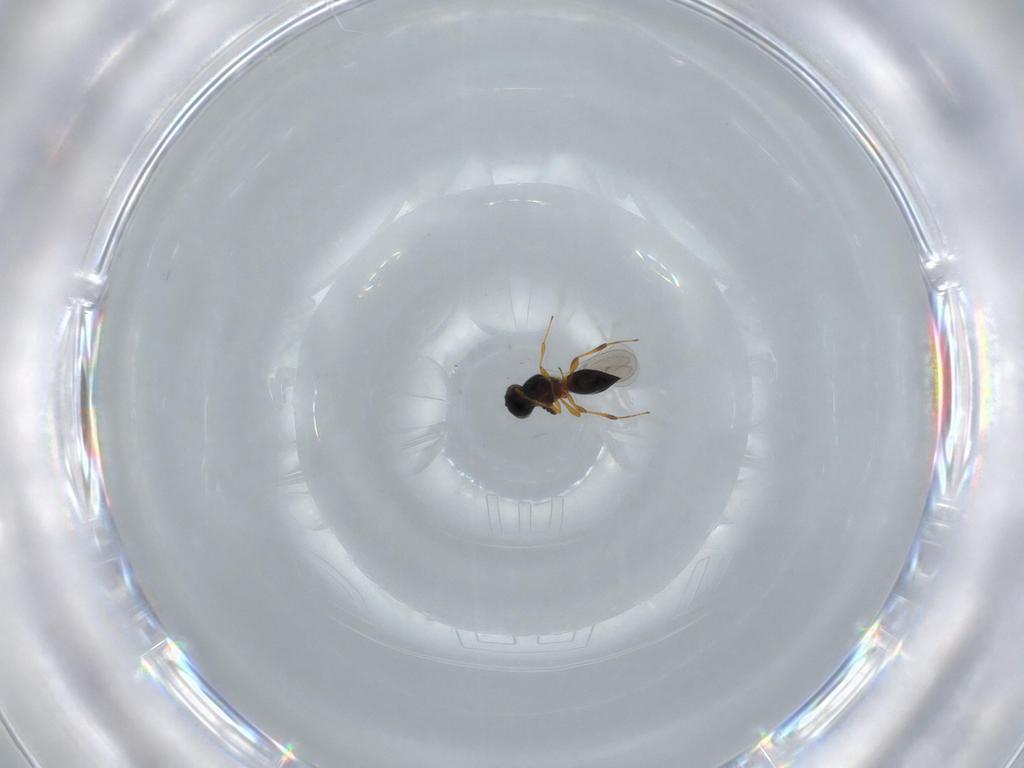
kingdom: Animalia
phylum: Arthropoda
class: Insecta
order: Hymenoptera
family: Platygastridae
